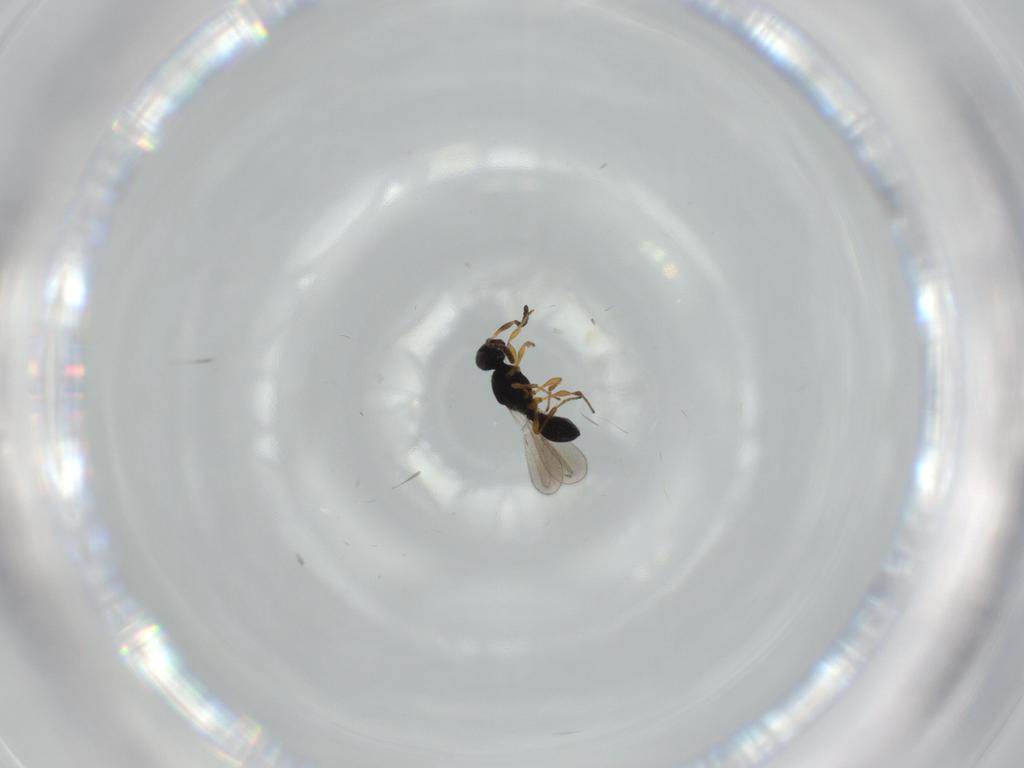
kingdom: Animalia
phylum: Arthropoda
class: Insecta
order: Hymenoptera
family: Platygastridae
